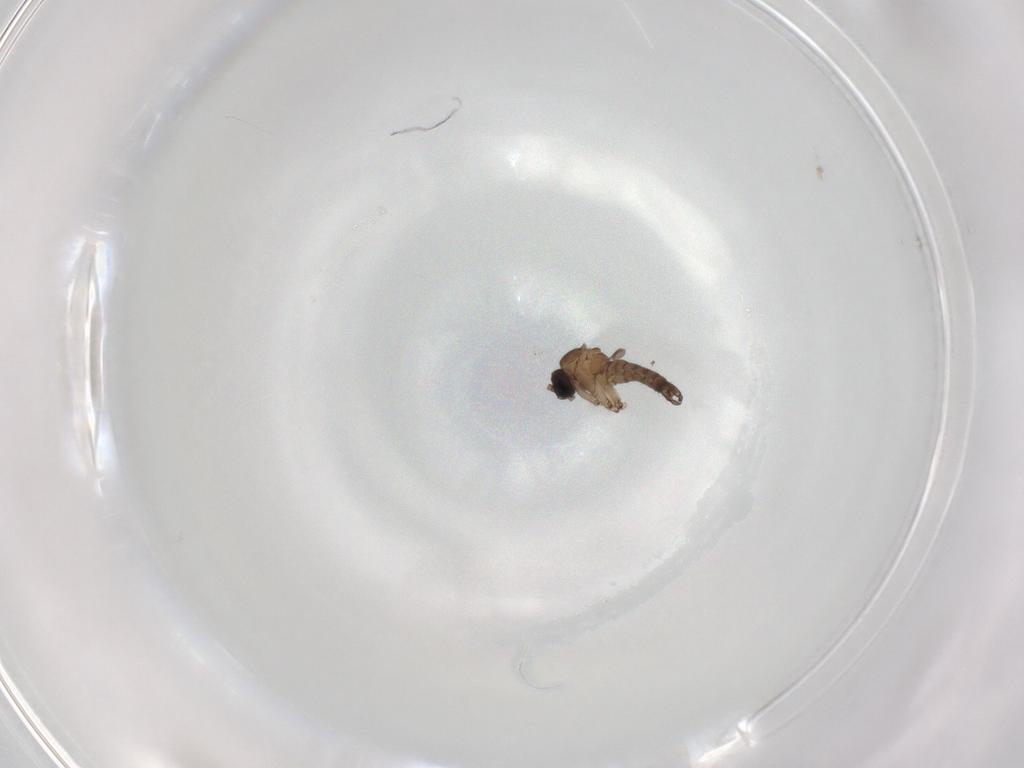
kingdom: Animalia
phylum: Arthropoda
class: Insecta
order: Diptera
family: Sciaridae
